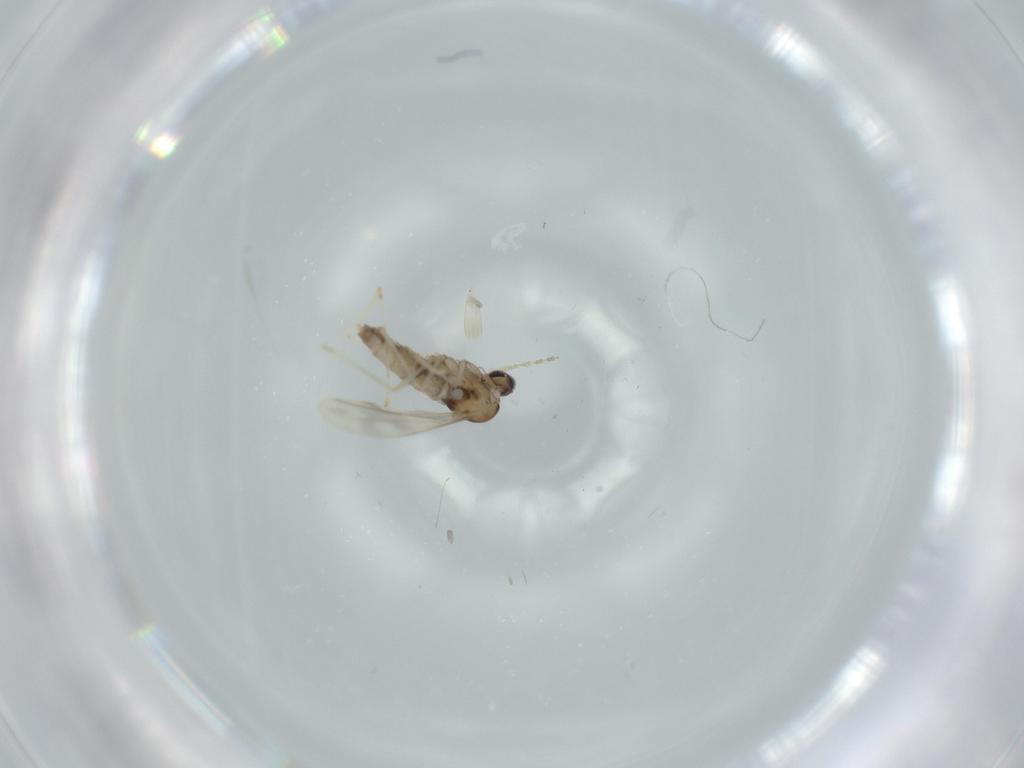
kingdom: Animalia
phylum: Arthropoda
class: Insecta
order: Diptera
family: Cecidomyiidae
